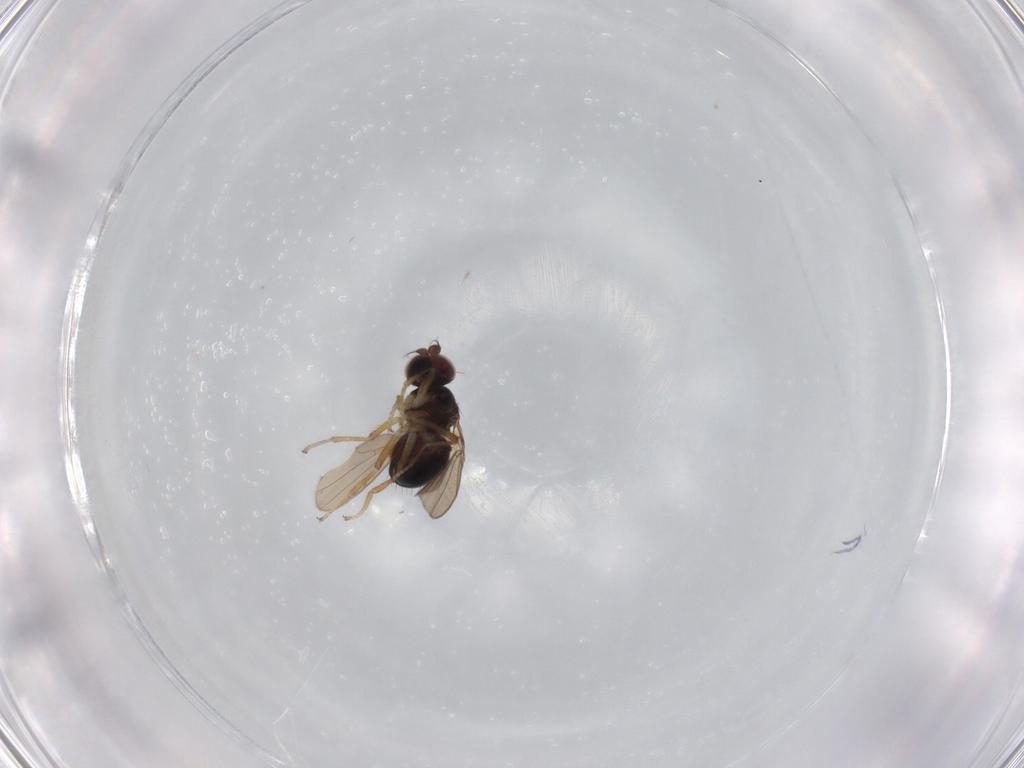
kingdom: Animalia
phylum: Arthropoda
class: Insecta
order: Diptera
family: Ephydridae
